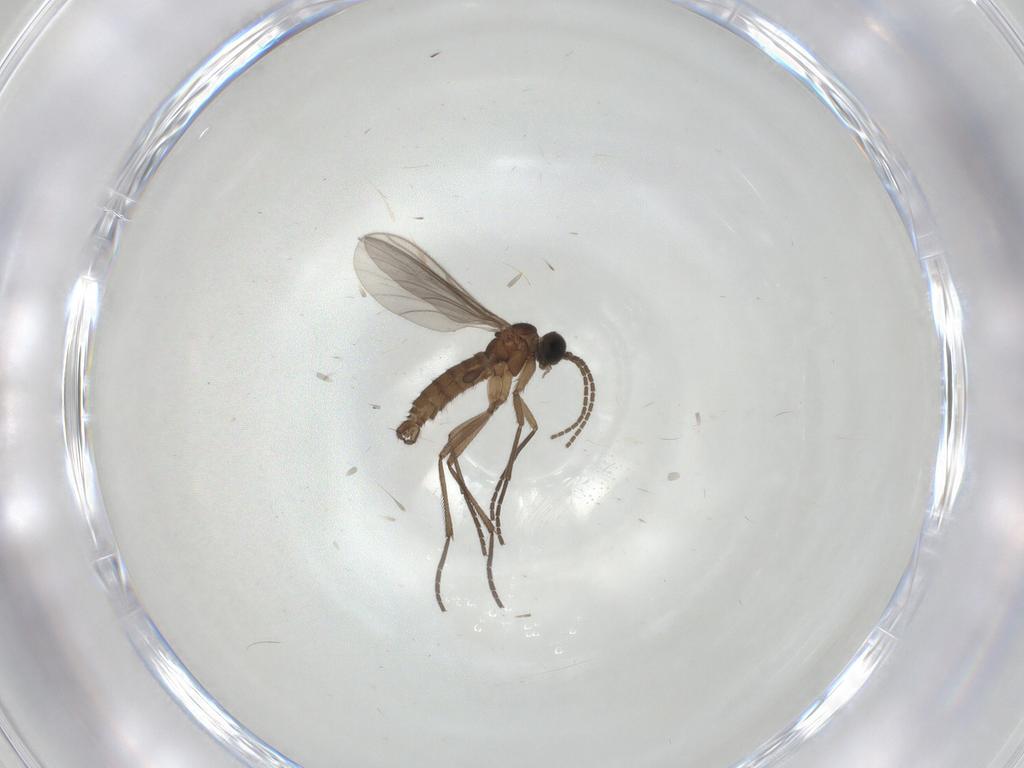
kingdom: Animalia
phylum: Arthropoda
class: Insecta
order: Diptera
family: Sciaridae
